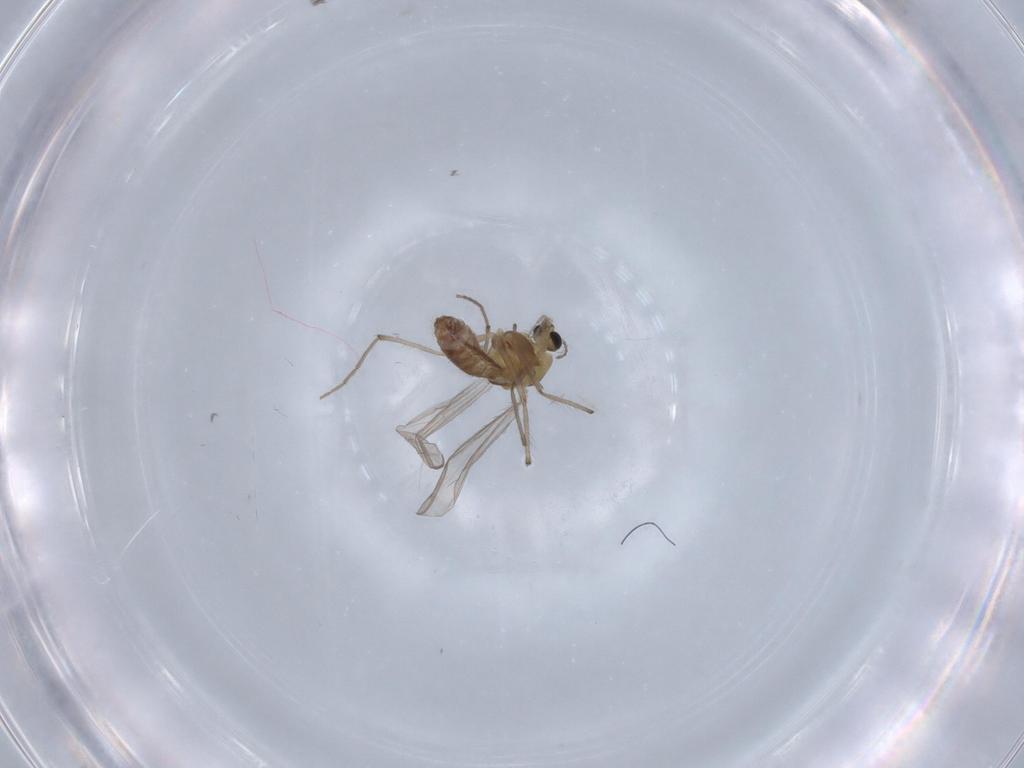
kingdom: Animalia
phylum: Arthropoda
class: Insecta
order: Diptera
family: Chironomidae
